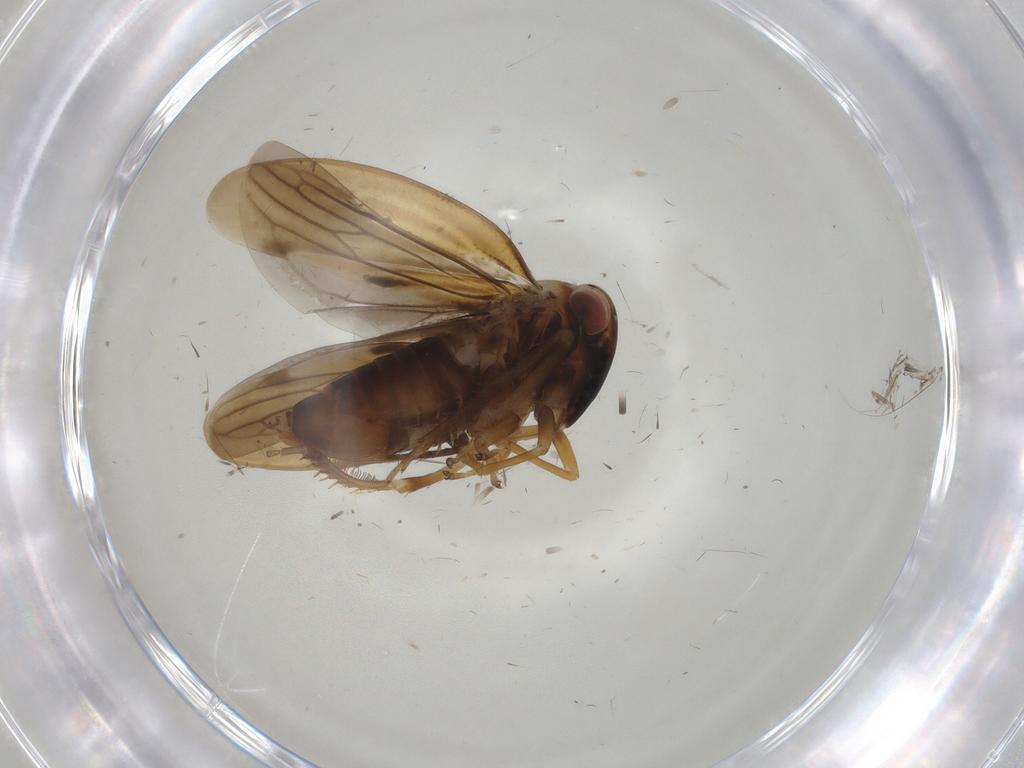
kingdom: Animalia
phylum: Arthropoda
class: Insecta
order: Hemiptera
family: Cicadellidae
